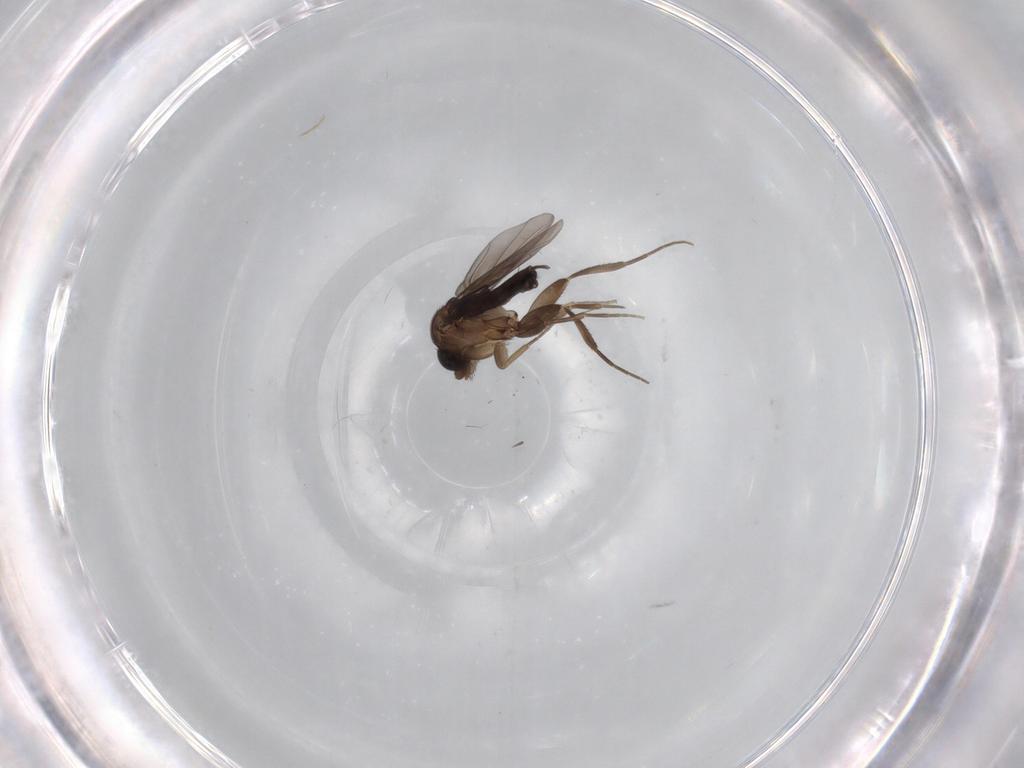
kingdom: Animalia
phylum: Arthropoda
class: Insecta
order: Diptera
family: Phoridae
